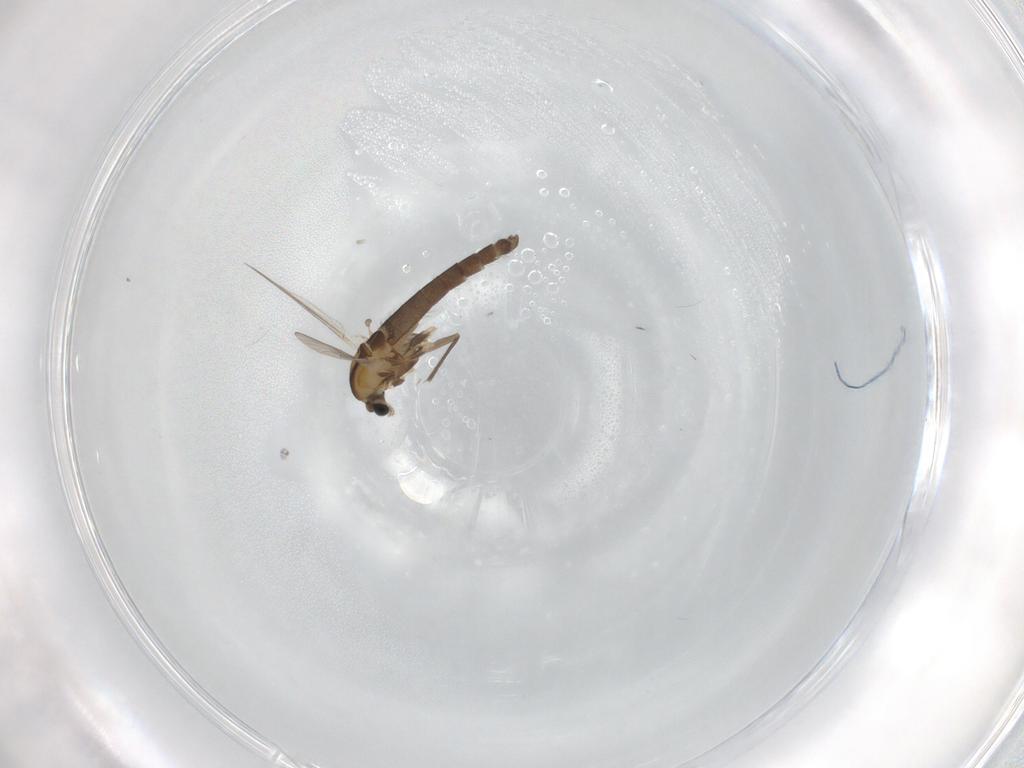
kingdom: Animalia
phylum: Arthropoda
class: Insecta
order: Diptera
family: Chironomidae
